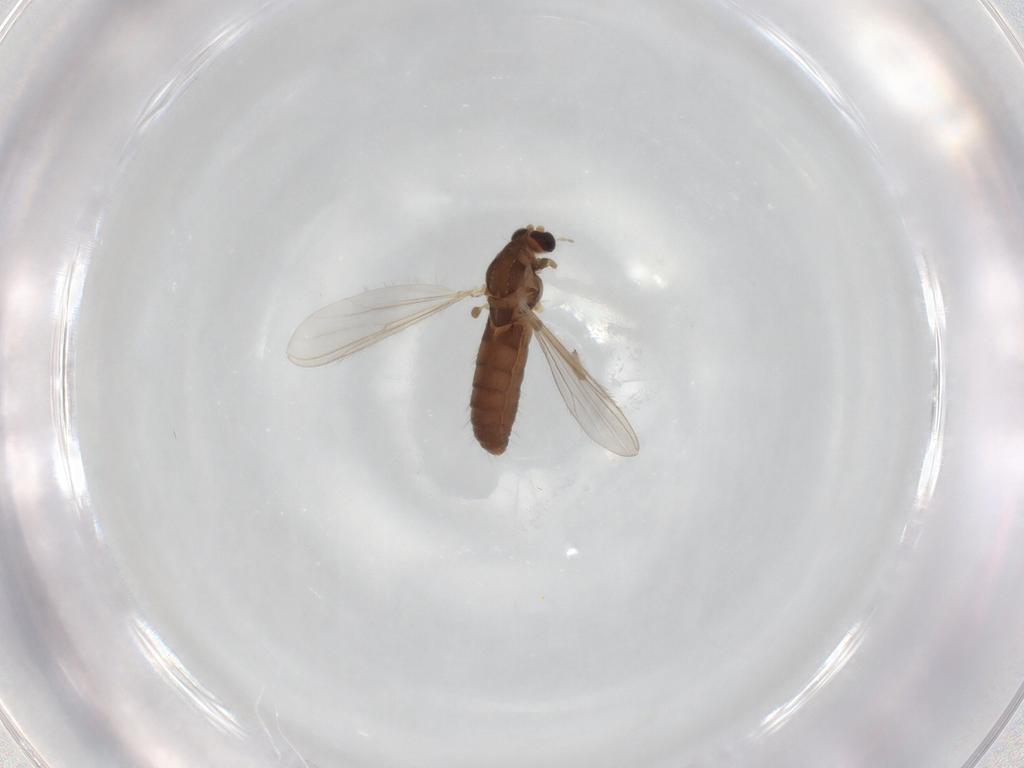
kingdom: Animalia
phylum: Arthropoda
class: Insecta
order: Diptera
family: Chironomidae
